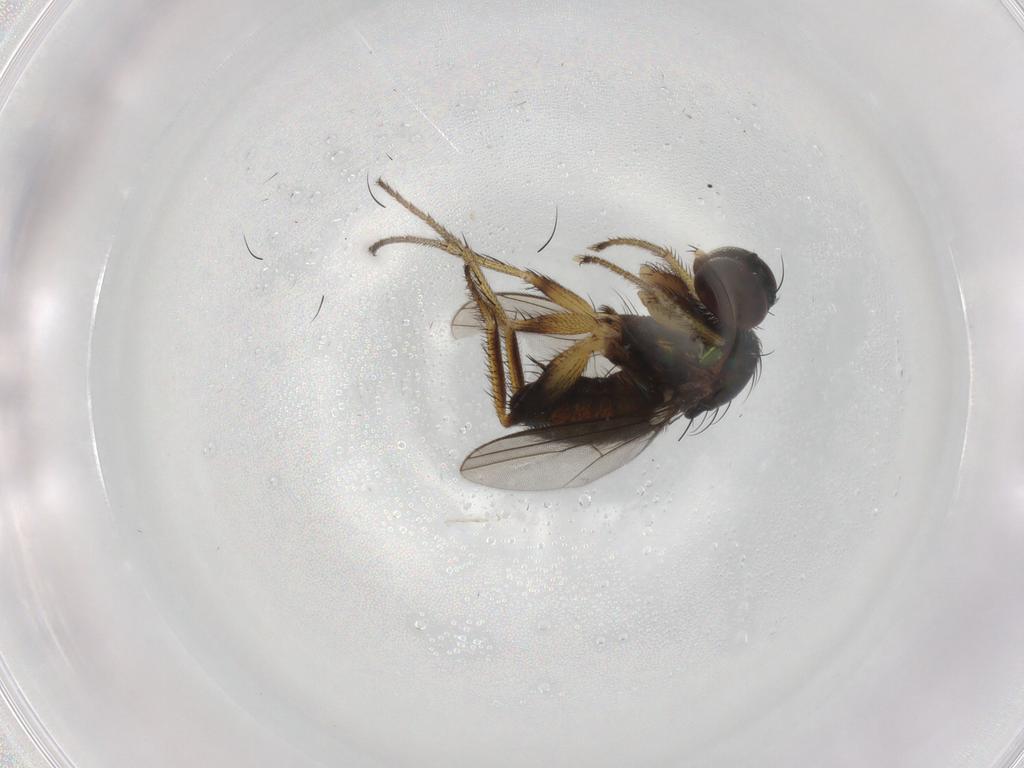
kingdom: Animalia
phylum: Arthropoda
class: Insecta
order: Diptera
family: Dolichopodidae
